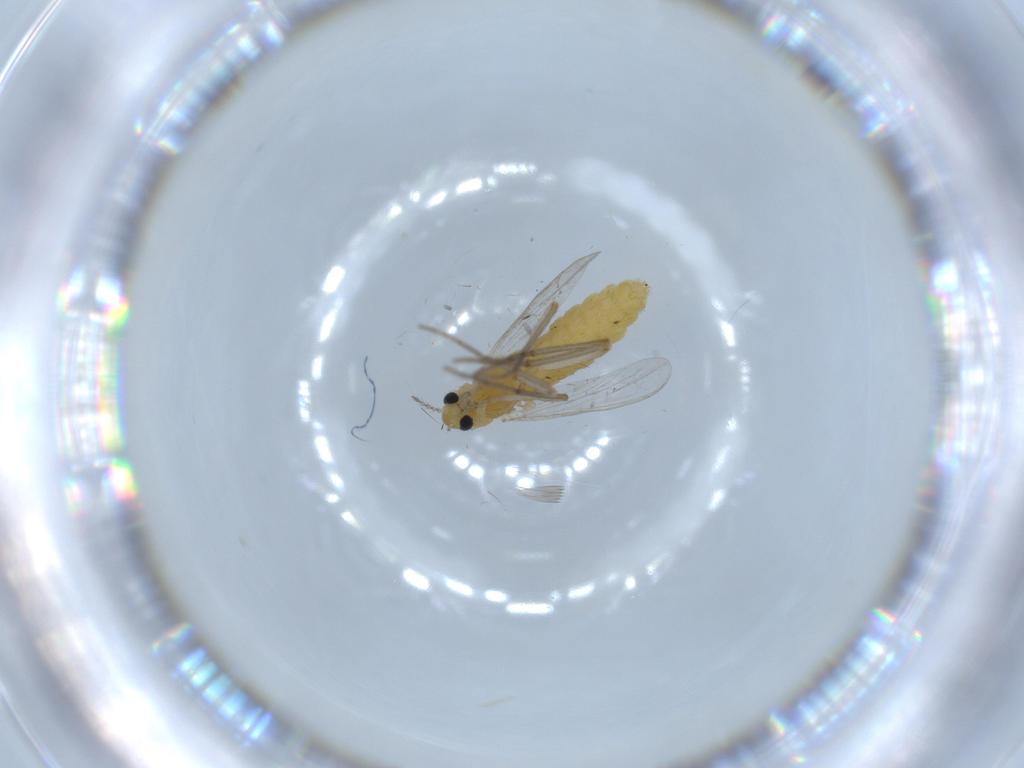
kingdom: Animalia
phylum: Arthropoda
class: Insecta
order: Diptera
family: Chironomidae
